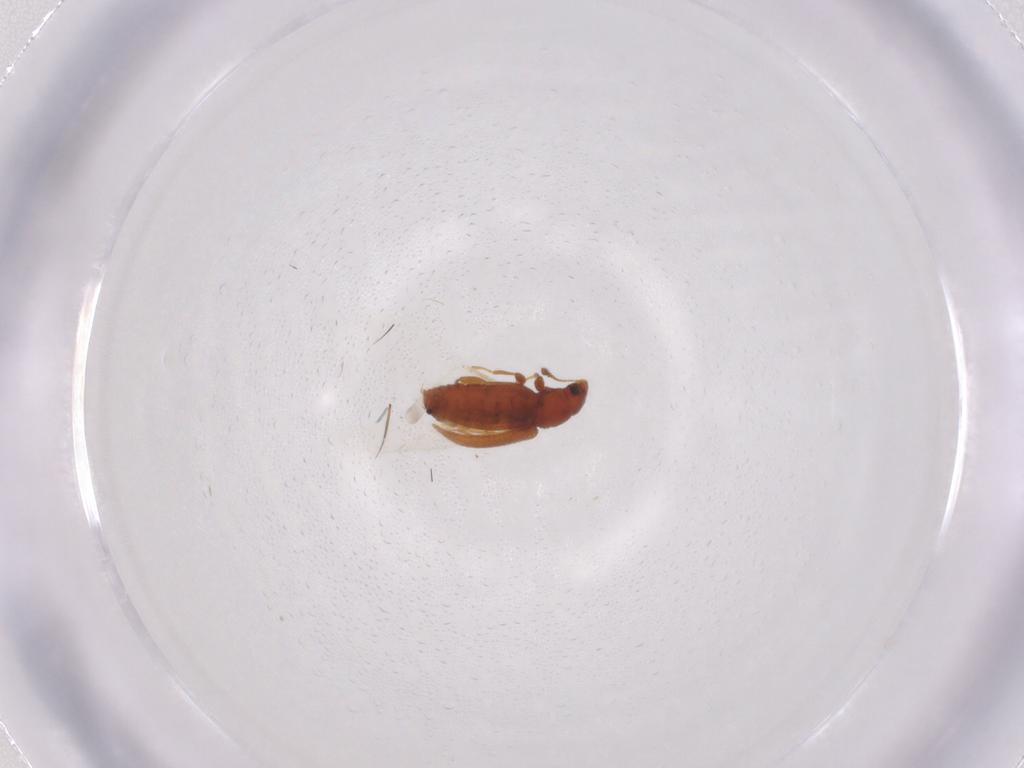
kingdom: Animalia
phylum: Arthropoda
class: Insecta
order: Coleoptera
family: Latridiidae
